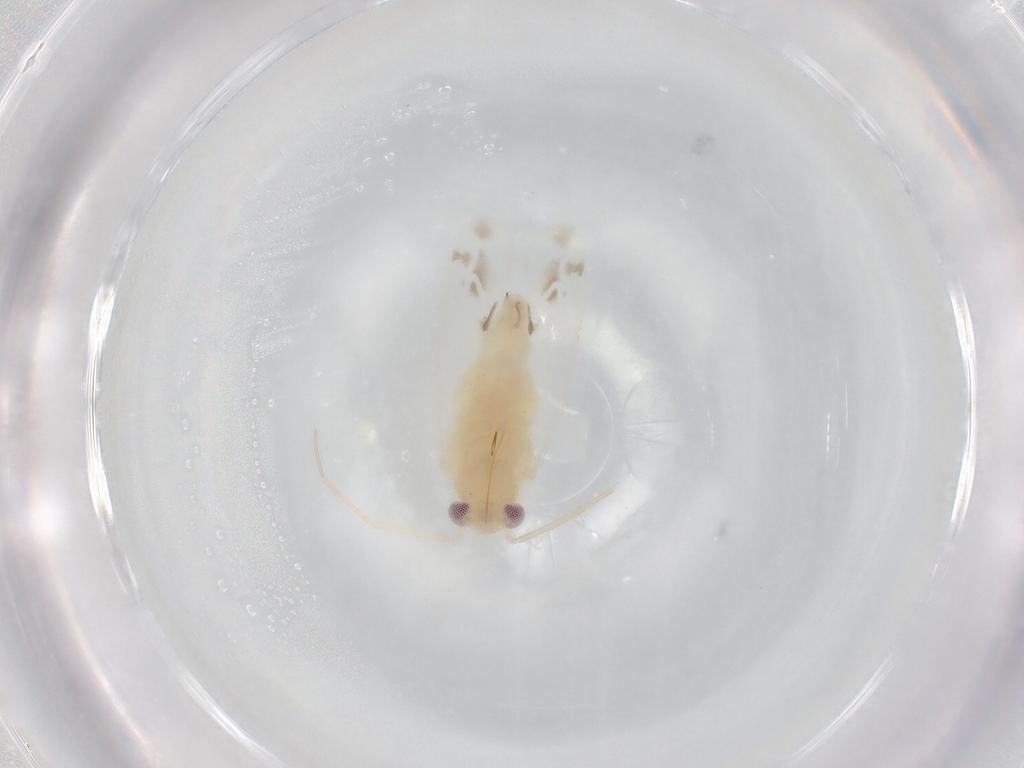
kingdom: Animalia
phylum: Arthropoda
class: Insecta
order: Hemiptera
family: Miridae
